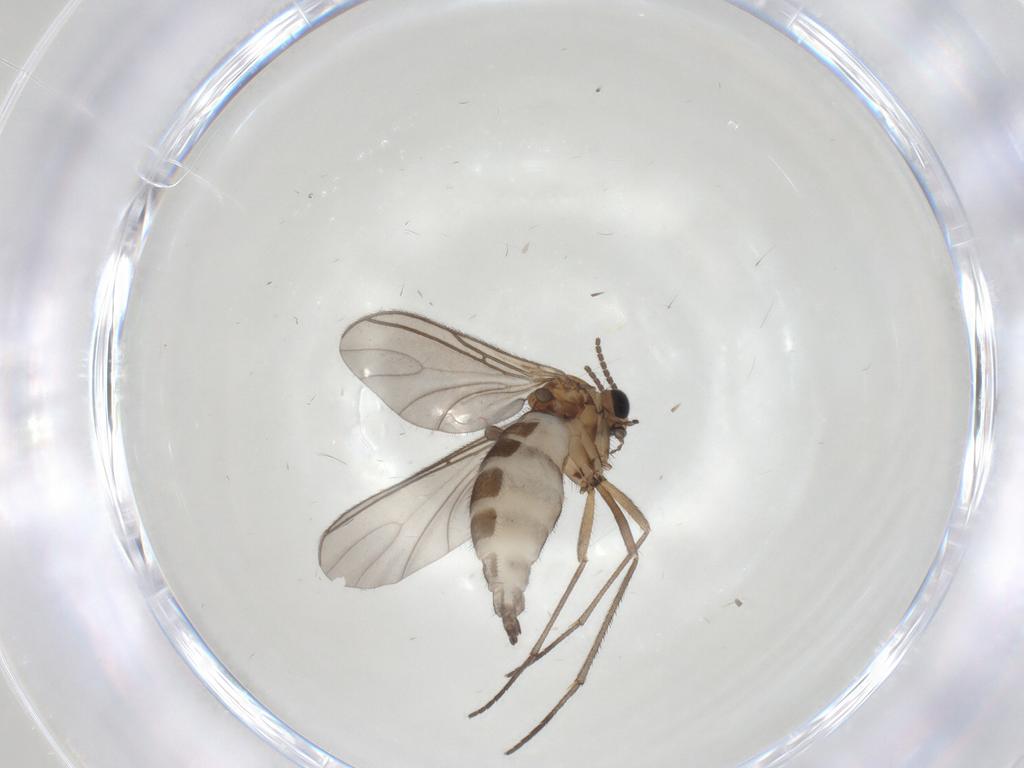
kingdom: Animalia
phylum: Arthropoda
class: Insecta
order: Diptera
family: Sciaridae
